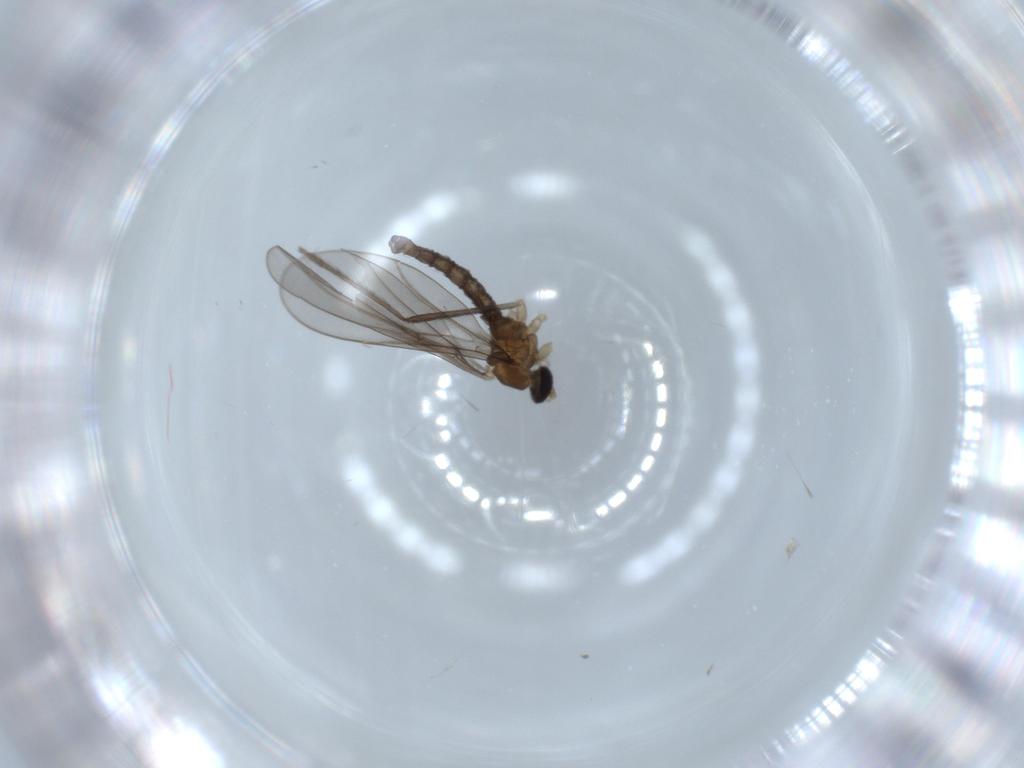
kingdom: Animalia
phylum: Arthropoda
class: Insecta
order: Diptera
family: Cecidomyiidae
